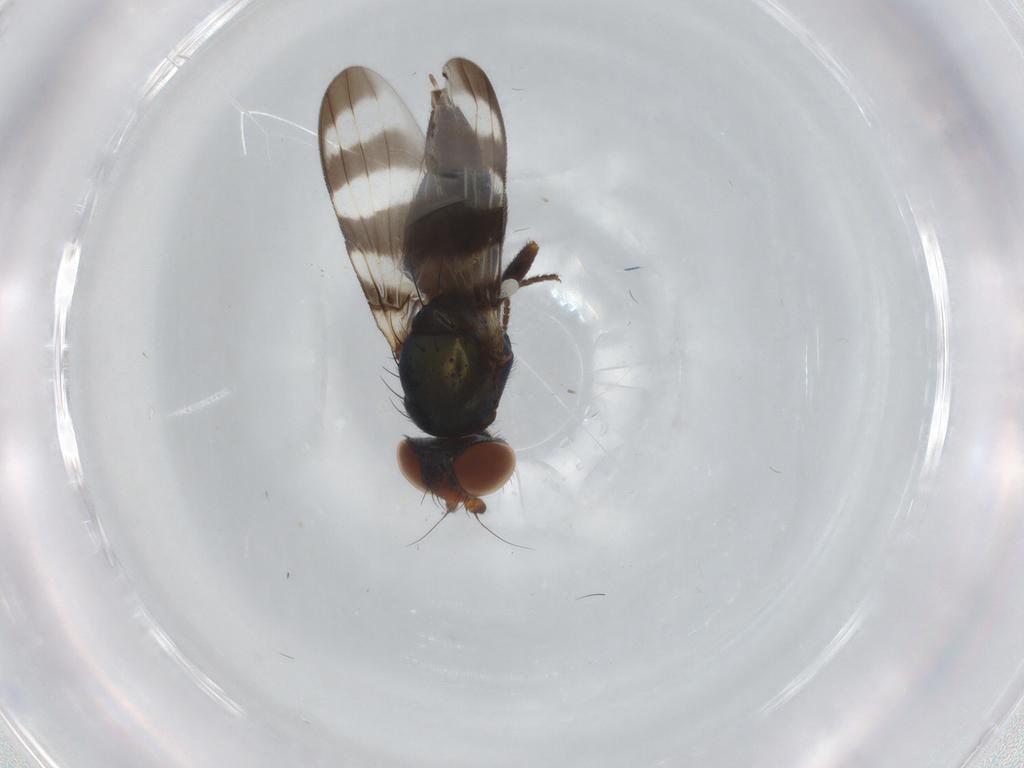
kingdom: Animalia
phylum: Arthropoda
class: Insecta
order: Diptera
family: Ulidiidae
